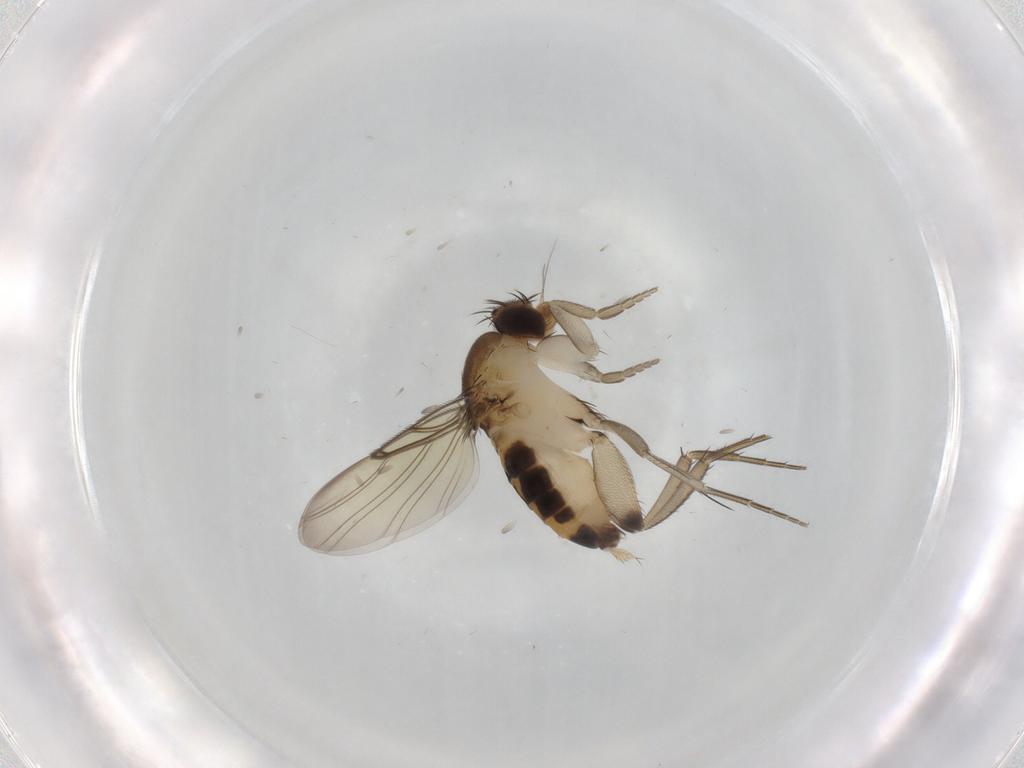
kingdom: Animalia
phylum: Arthropoda
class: Insecta
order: Diptera
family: Phoridae
